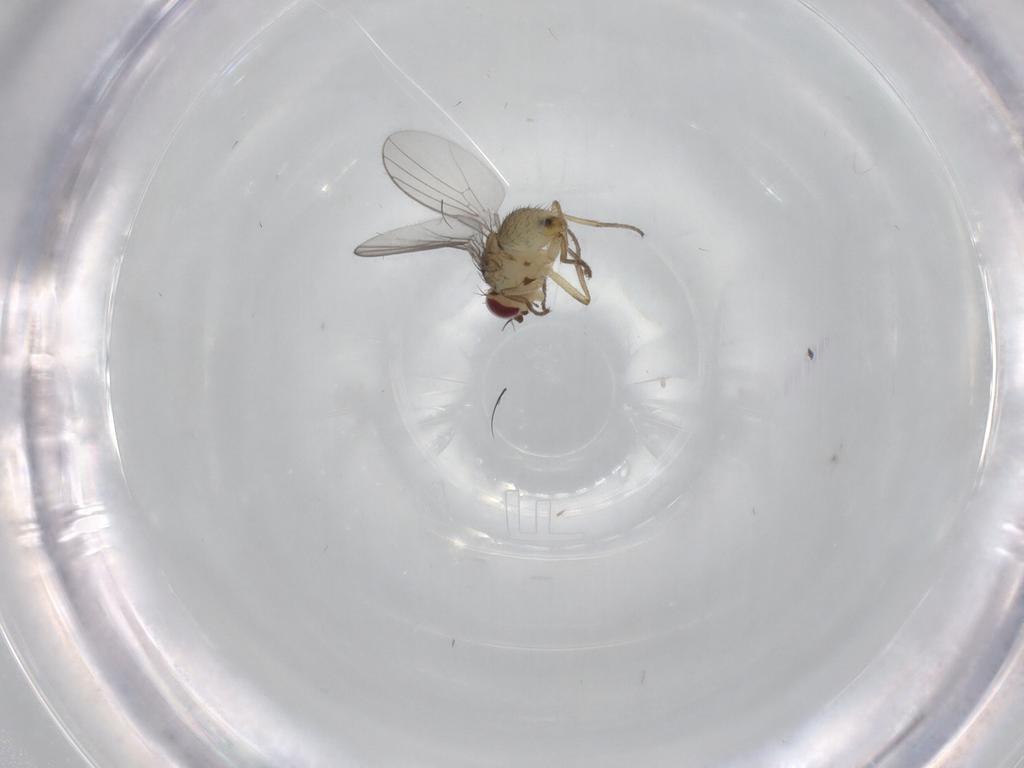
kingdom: Animalia
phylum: Arthropoda
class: Insecta
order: Diptera
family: Agromyzidae
